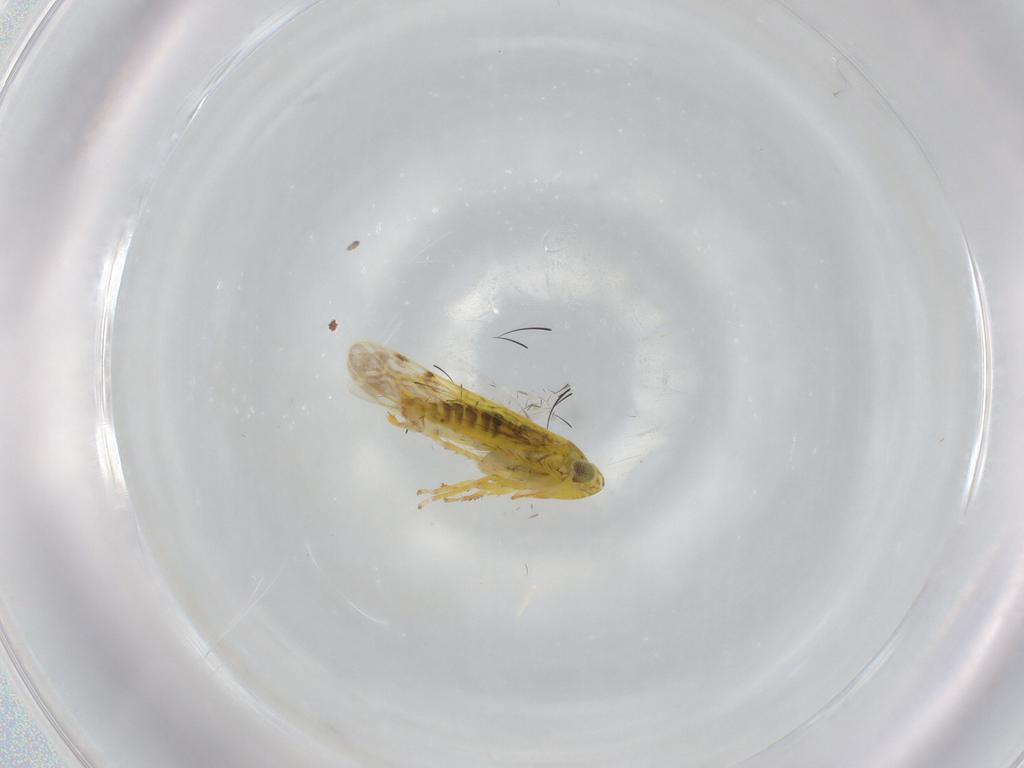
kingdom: Animalia
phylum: Arthropoda
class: Insecta
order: Hemiptera
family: Cicadellidae
